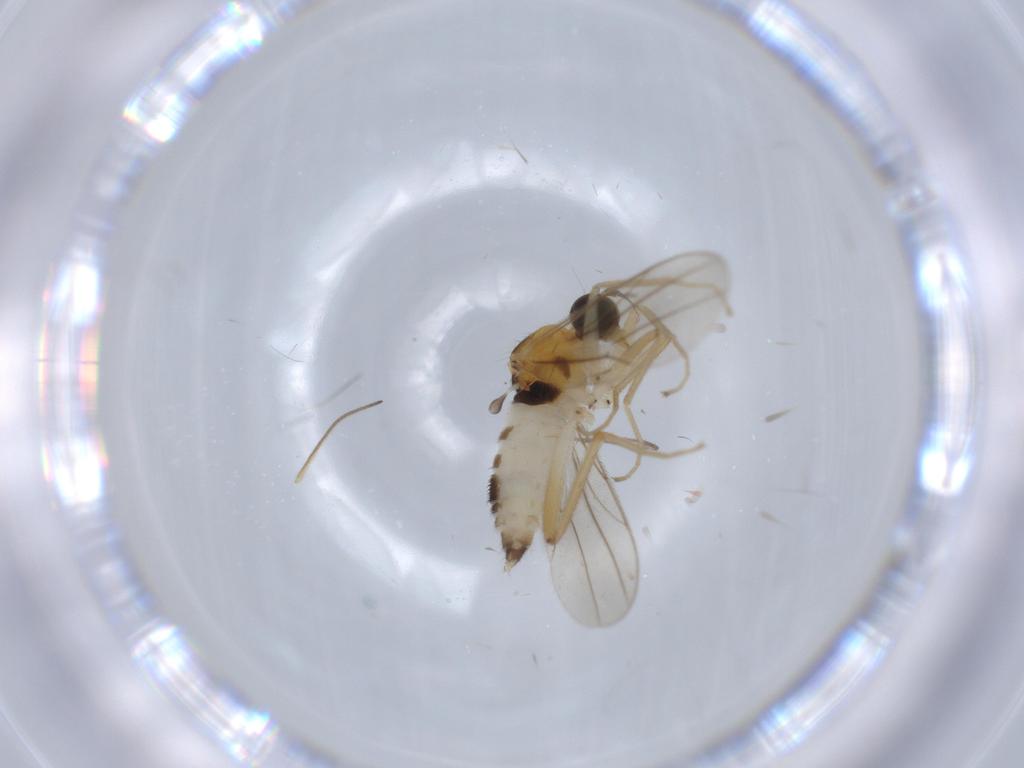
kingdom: Animalia
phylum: Arthropoda
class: Insecta
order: Diptera
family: Hybotidae
